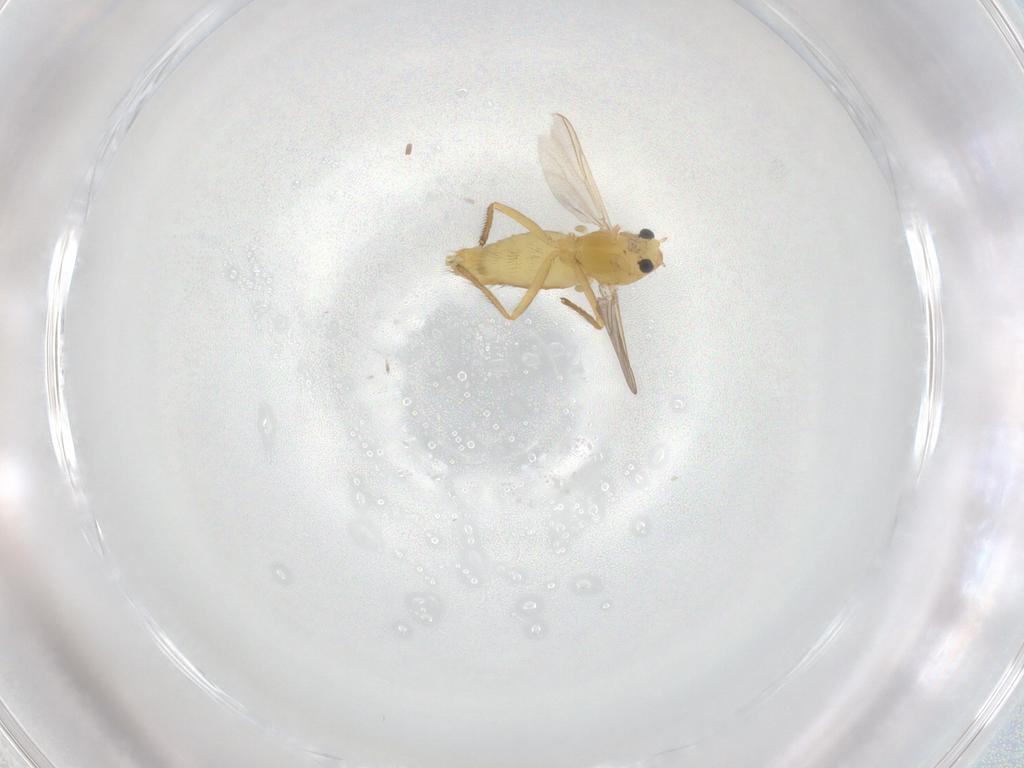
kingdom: Animalia
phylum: Arthropoda
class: Insecta
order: Diptera
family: Chironomidae
